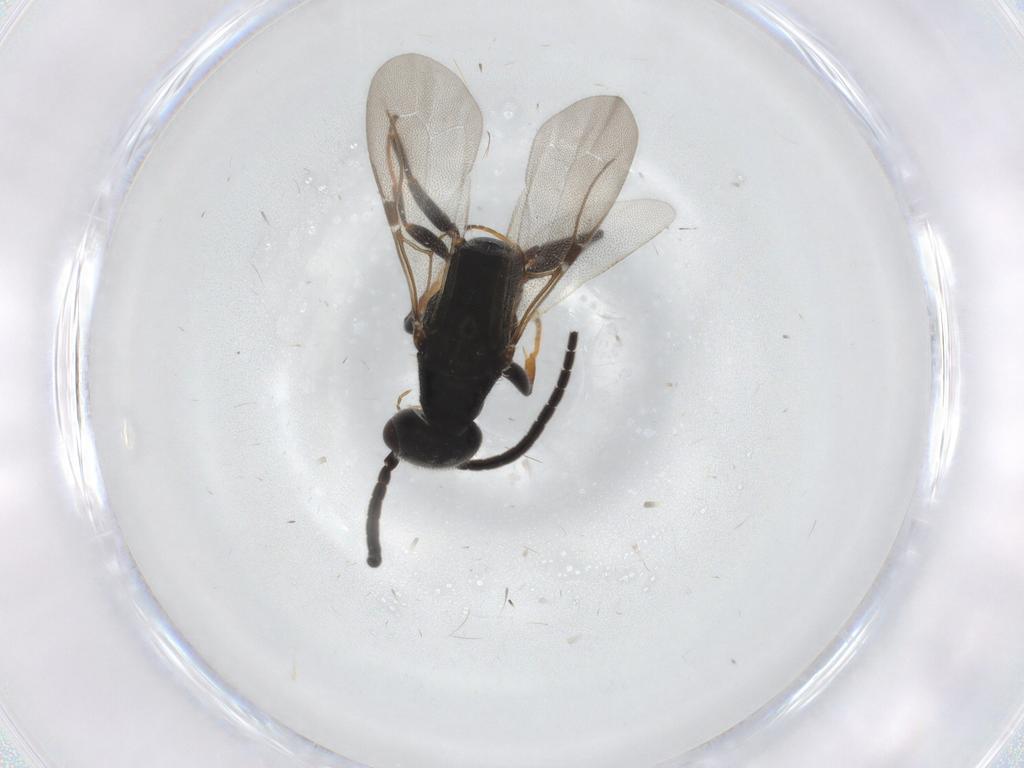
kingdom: Animalia
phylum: Arthropoda
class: Insecta
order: Hymenoptera
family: Bethylidae
